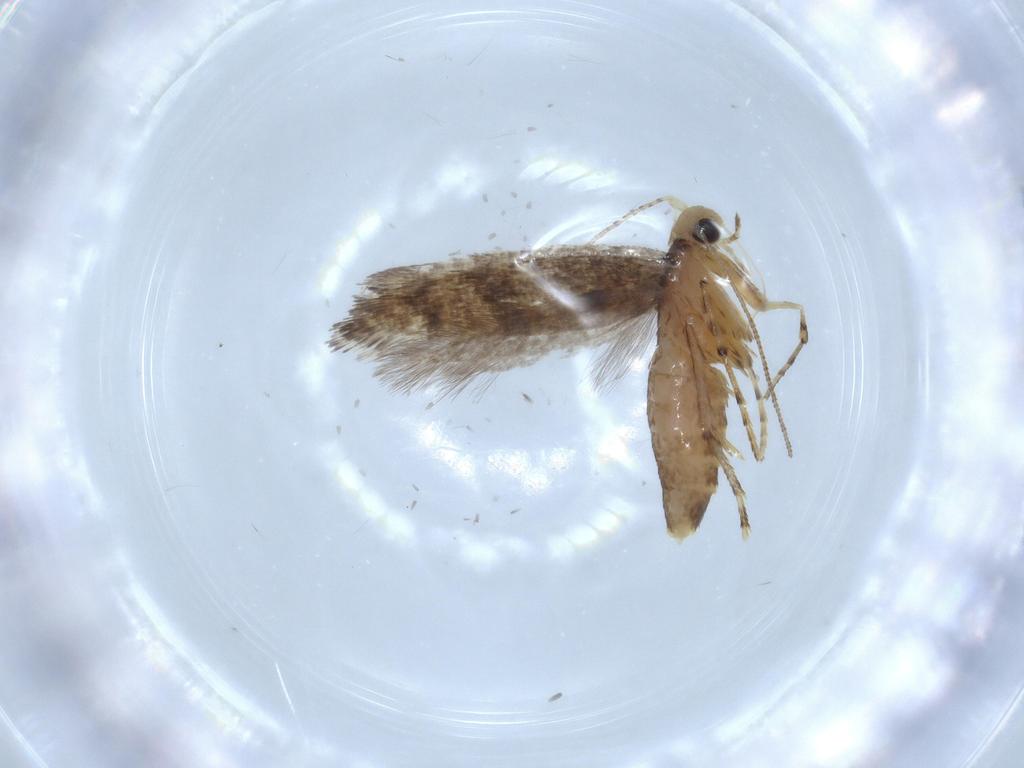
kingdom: Animalia
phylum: Arthropoda
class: Insecta
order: Lepidoptera
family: Argyresthiidae
